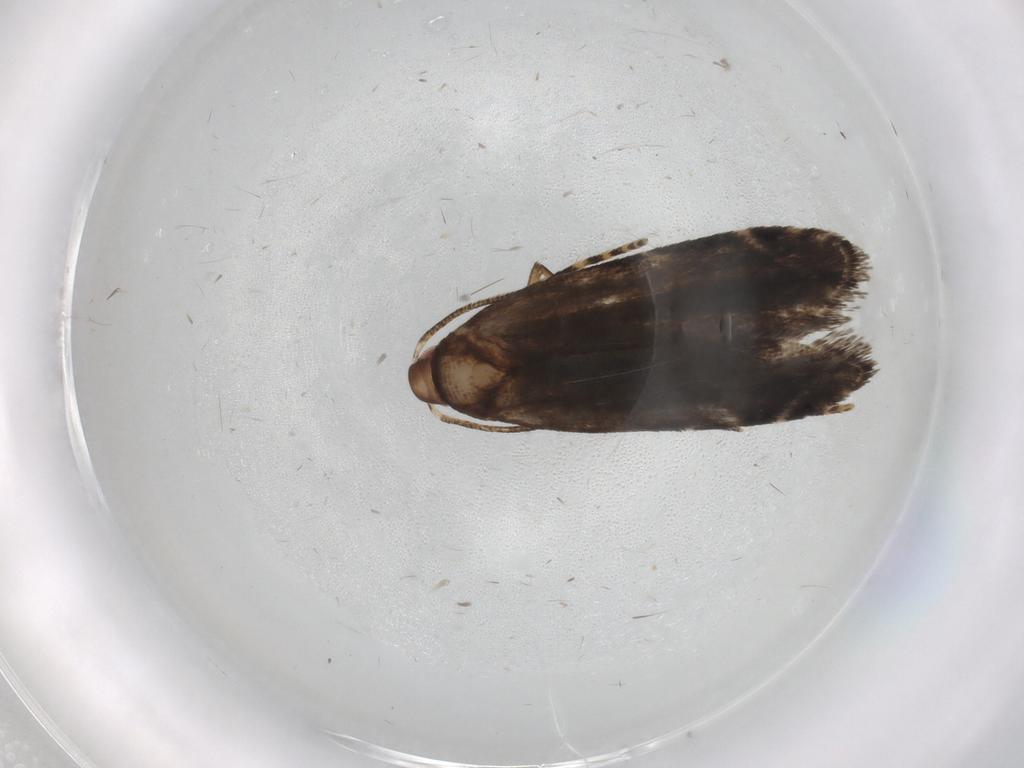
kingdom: Animalia
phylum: Arthropoda
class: Insecta
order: Lepidoptera
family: Gelechiidae
